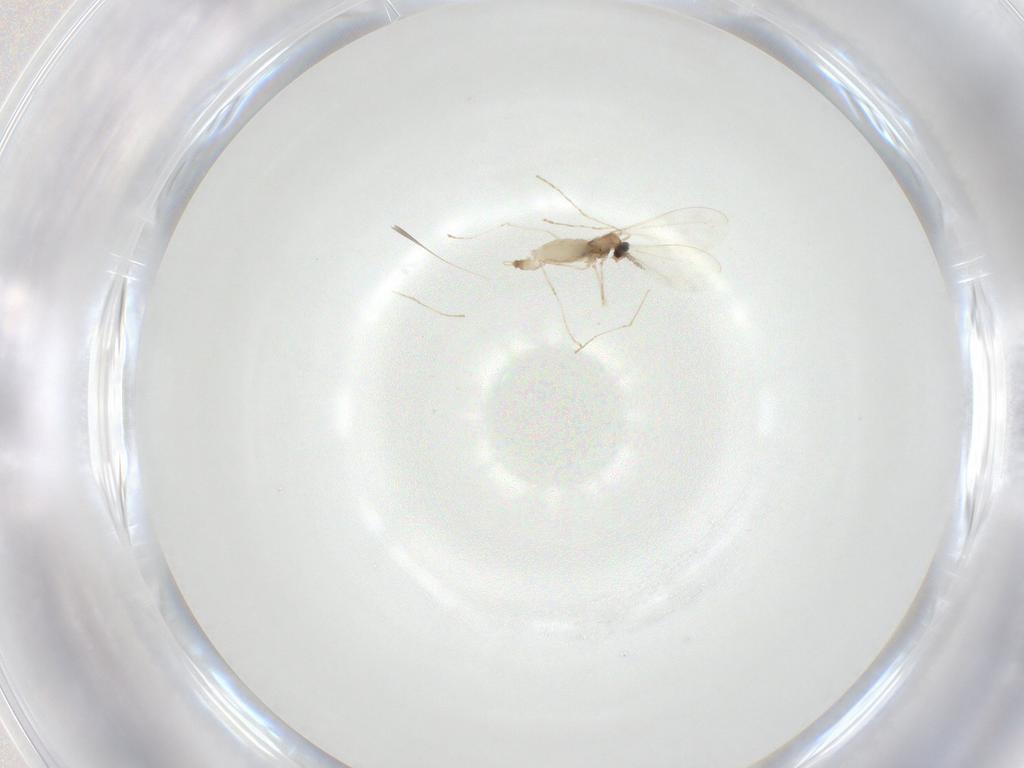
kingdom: Animalia
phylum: Arthropoda
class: Insecta
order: Diptera
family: Cecidomyiidae
